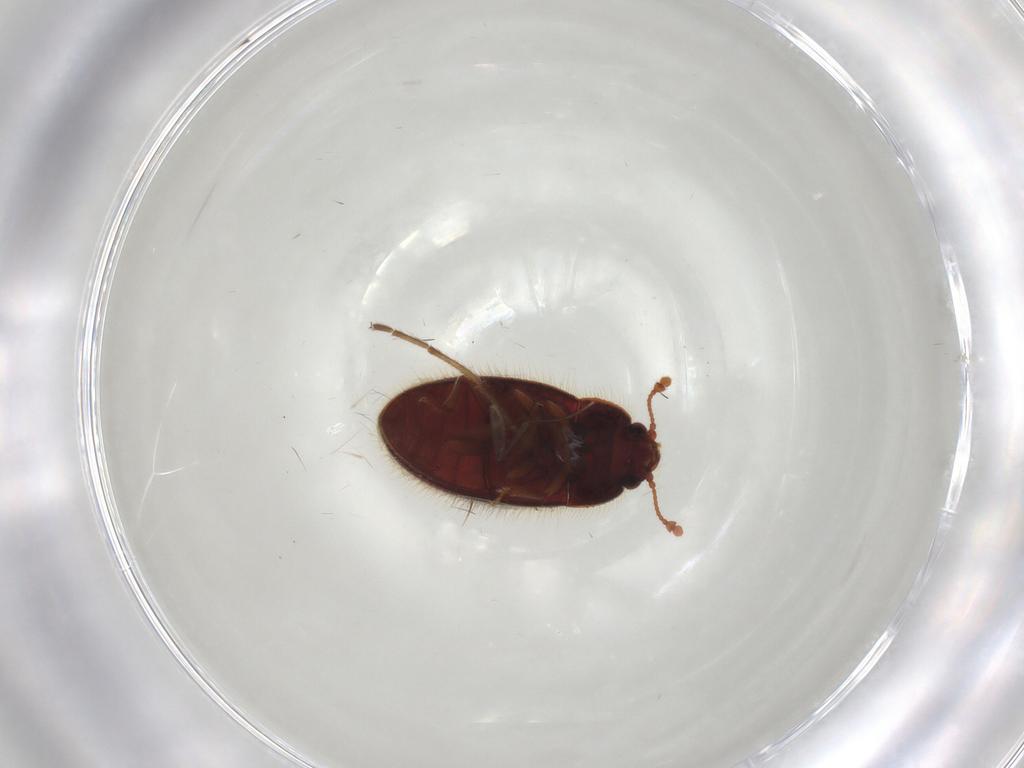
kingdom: Animalia
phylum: Arthropoda
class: Insecta
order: Coleoptera
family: Biphyllidae
